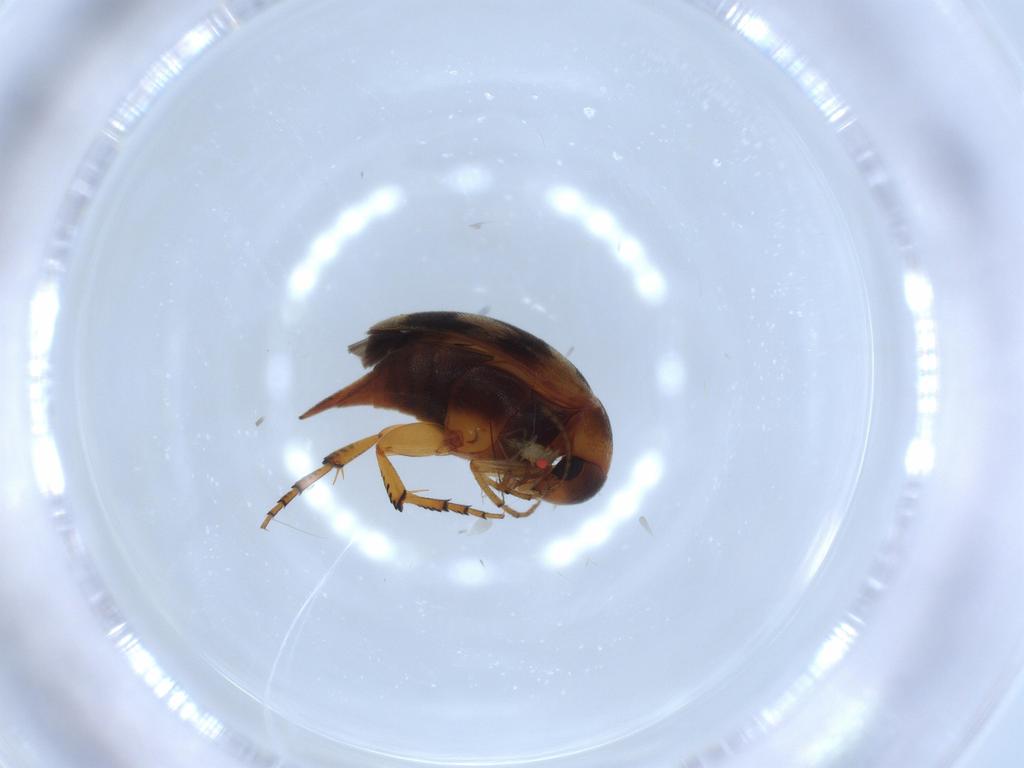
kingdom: Animalia
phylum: Arthropoda
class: Insecta
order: Coleoptera
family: Mordellidae
